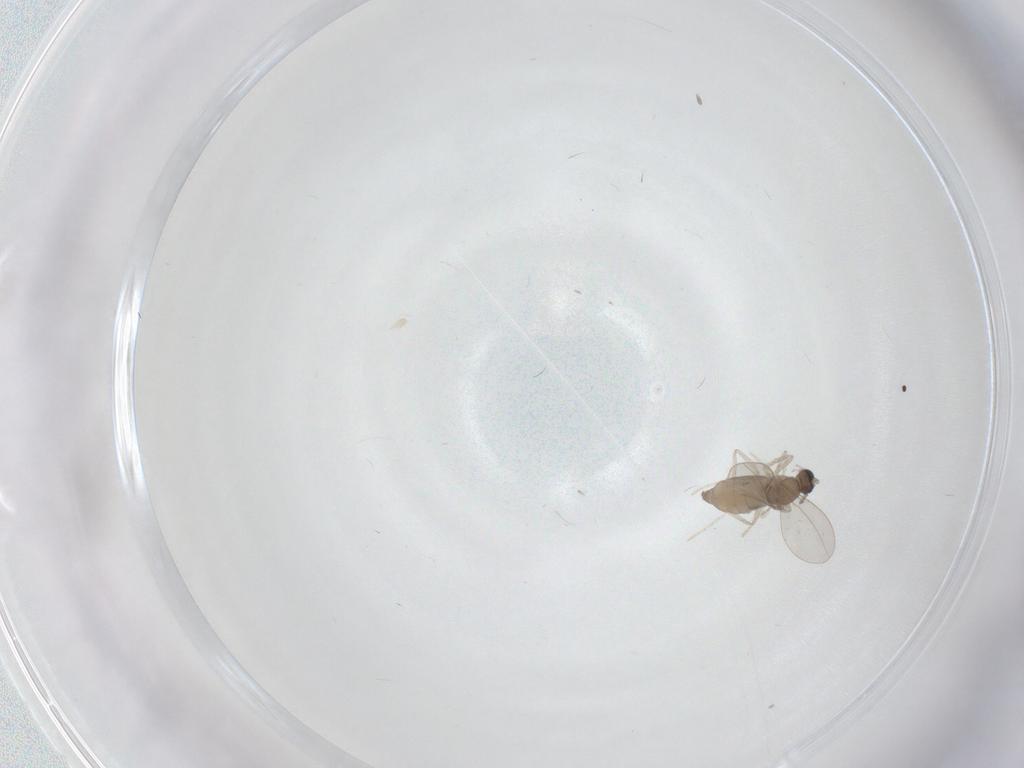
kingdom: Animalia
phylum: Arthropoda
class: Insecta
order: Diptera
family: Cecidomyiidae
